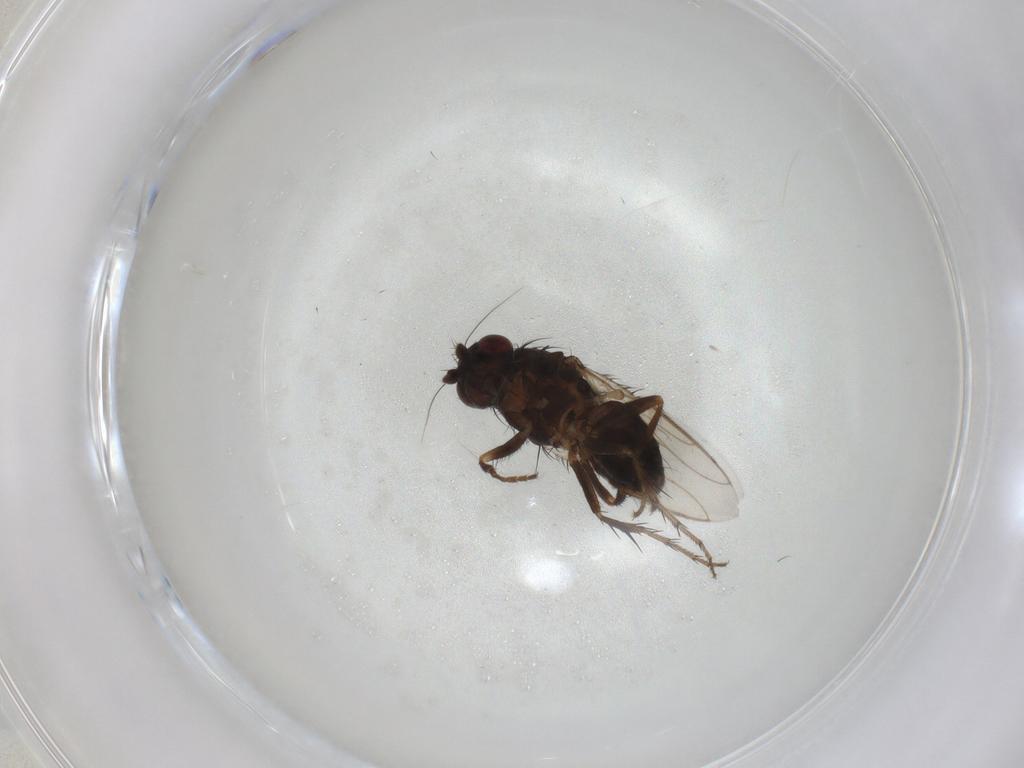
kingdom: Animalia
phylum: Arthropoda
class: Insecta
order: Diptera
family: Sphaeroceridae
